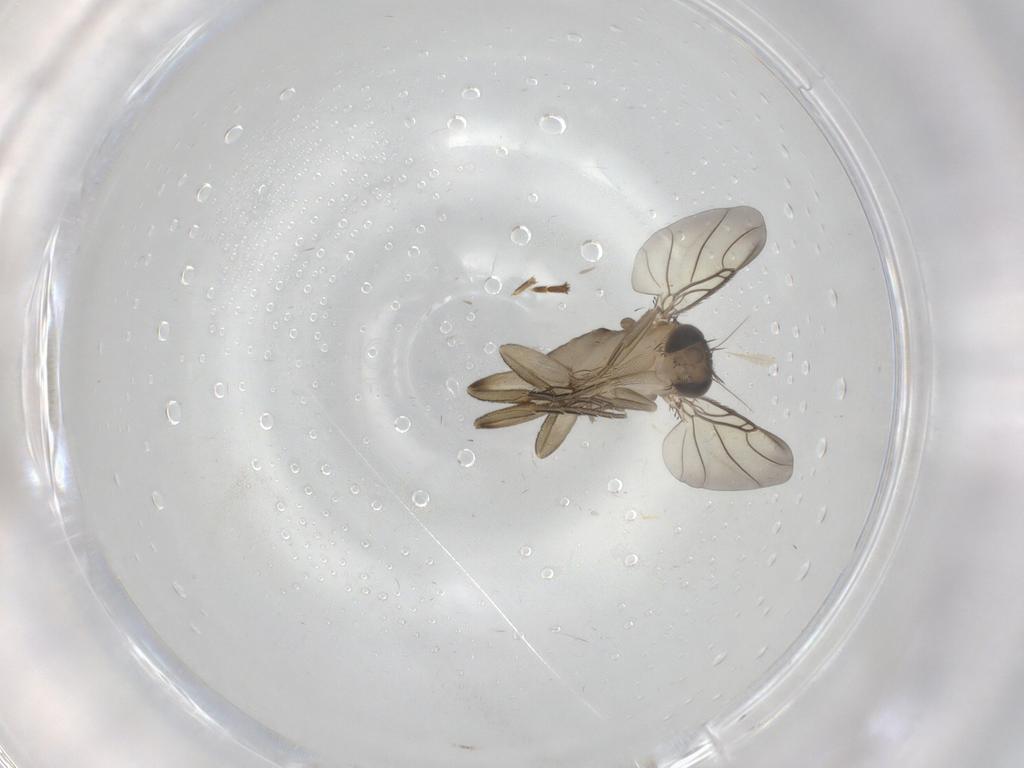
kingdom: Animalia
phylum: Arthropoda
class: Insecta
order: Diptera
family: Phoridae
